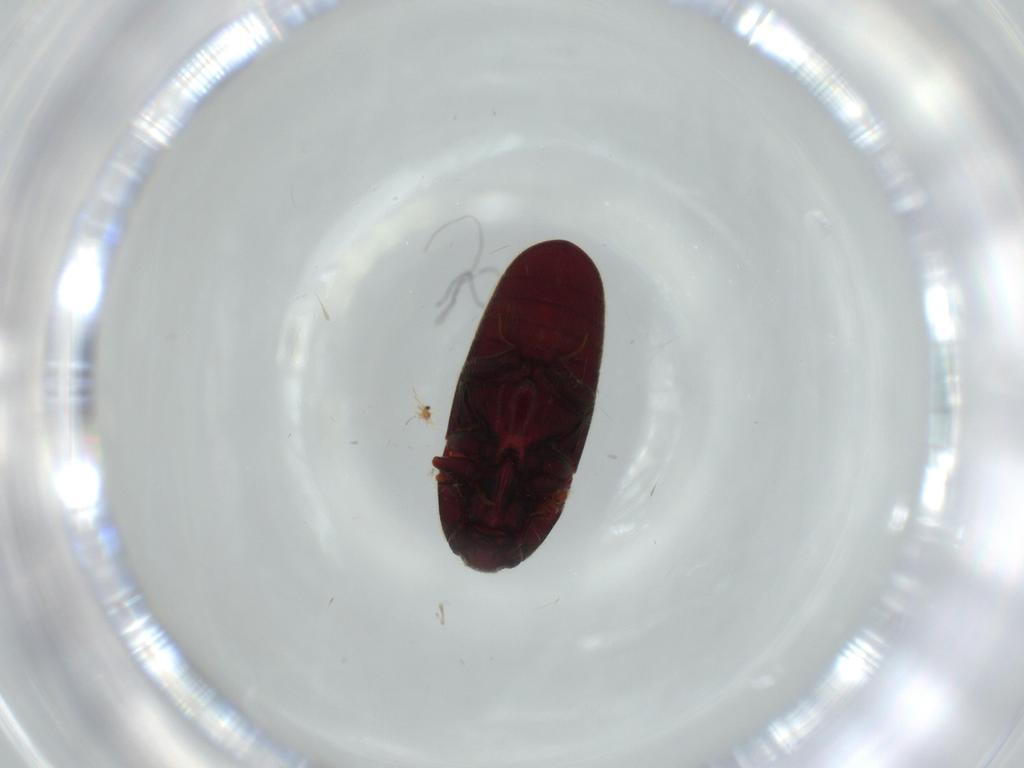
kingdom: Animalia
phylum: Arthropoda
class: Insecta
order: Coleoptera
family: Throscidae
